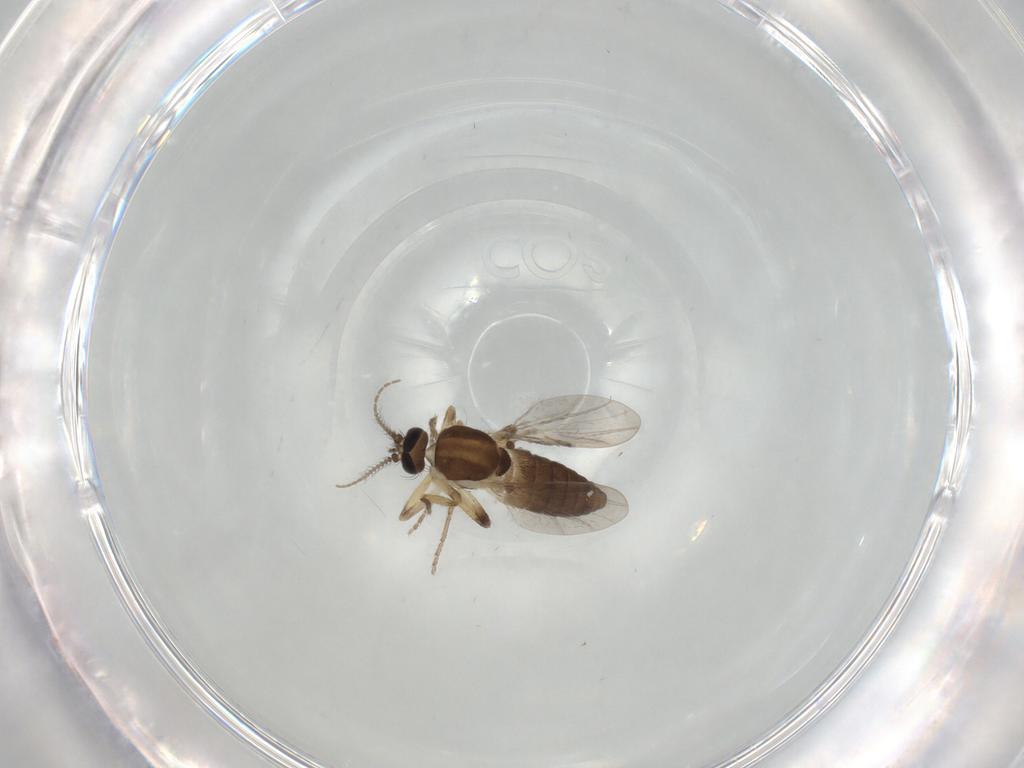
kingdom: Animalia
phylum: Arthropoda
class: Insecta
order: Diptera
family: Ceratopogonidae
